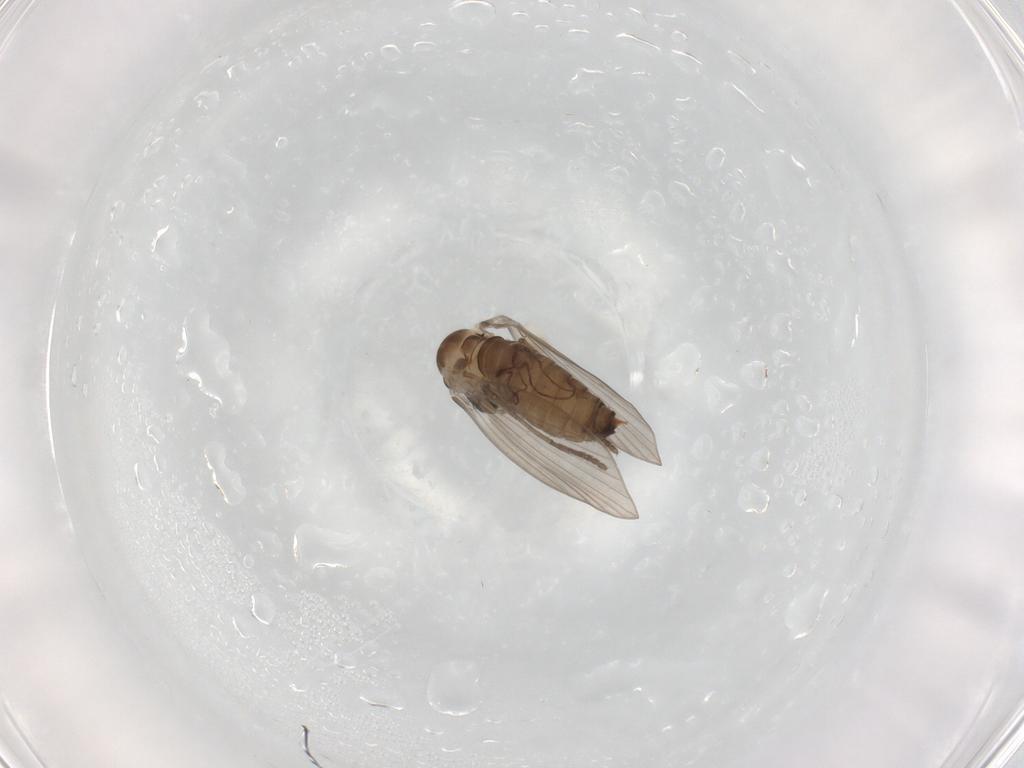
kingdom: Animalia
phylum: Arthropoda
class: Insecta
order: Diptera
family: Psychodidae
